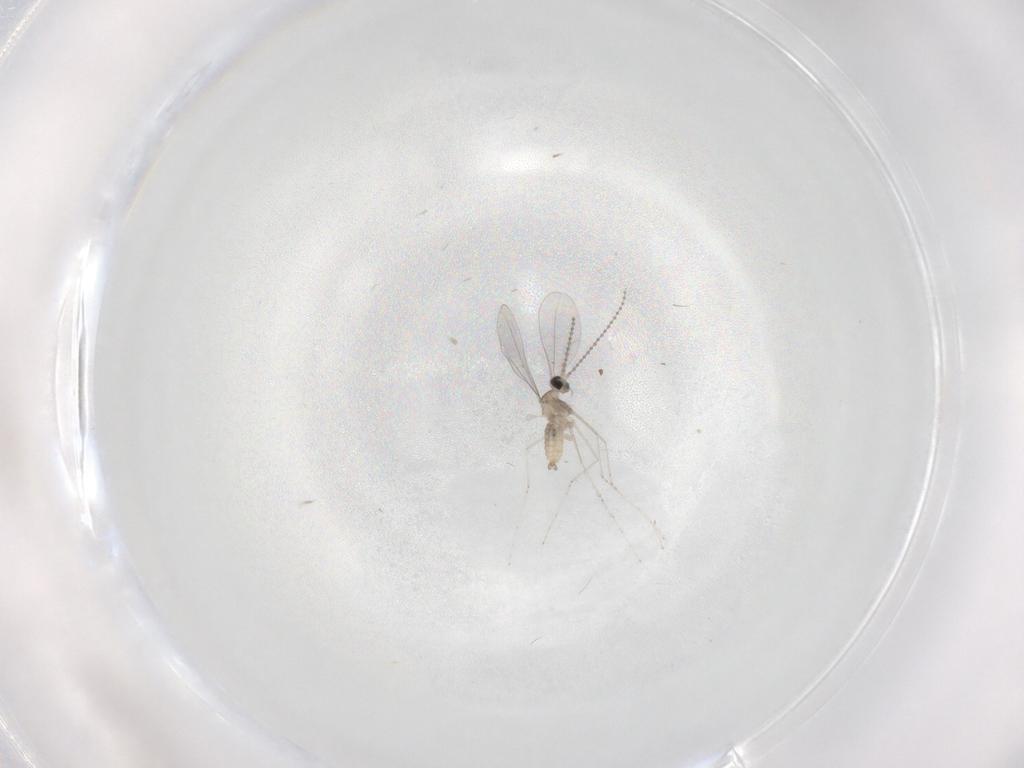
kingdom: Animalia
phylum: Arthropoda
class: Insecta
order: Diptera
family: Cecidomyiidae
